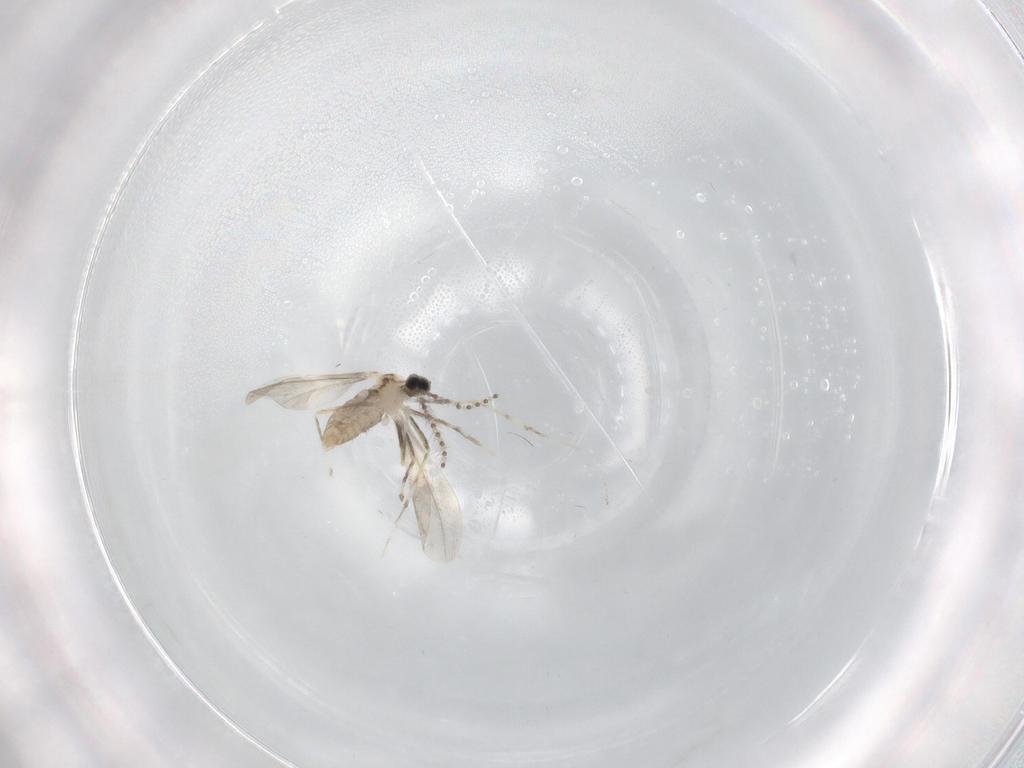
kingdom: Animalia
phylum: Arthropoda
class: Insecta
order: Diptera
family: Cecidomyiidae
